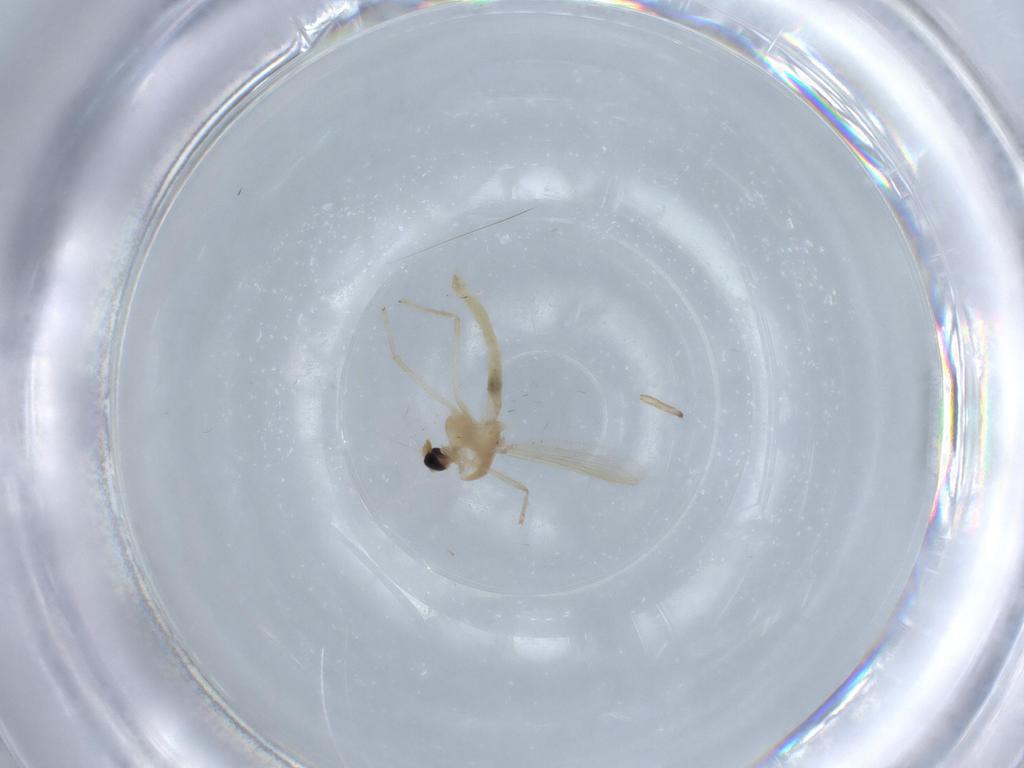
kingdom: Animalia
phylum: Arthropoda
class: Insecta
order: Diptera
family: Chironomidae
